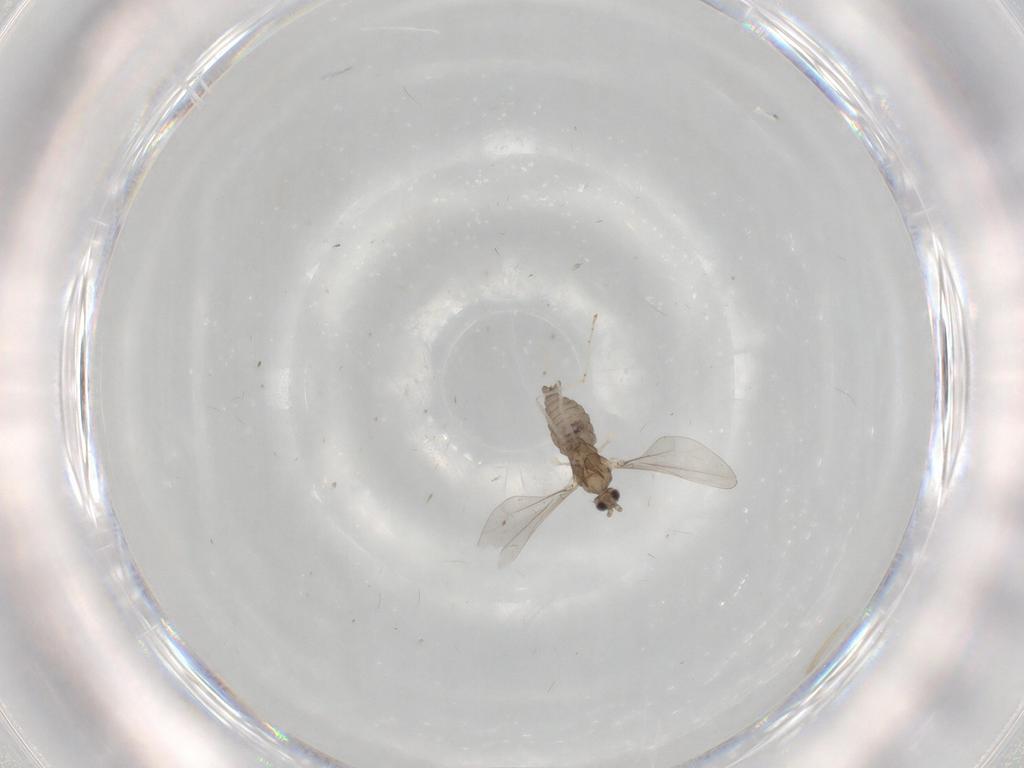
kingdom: Animalia
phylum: Arthropoda
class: Insecta
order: Diptera
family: Cecidomyiidae
